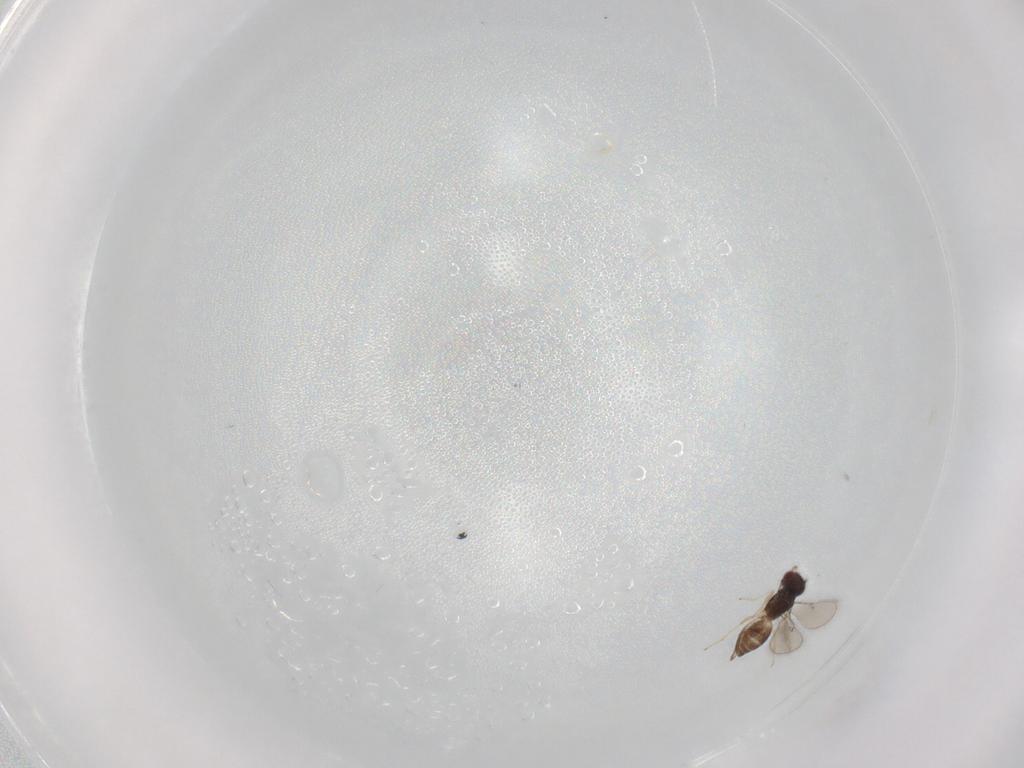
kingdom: Animalia
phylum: Arthropoda
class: Insecta
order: Hymenoptera
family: Eulophidae
